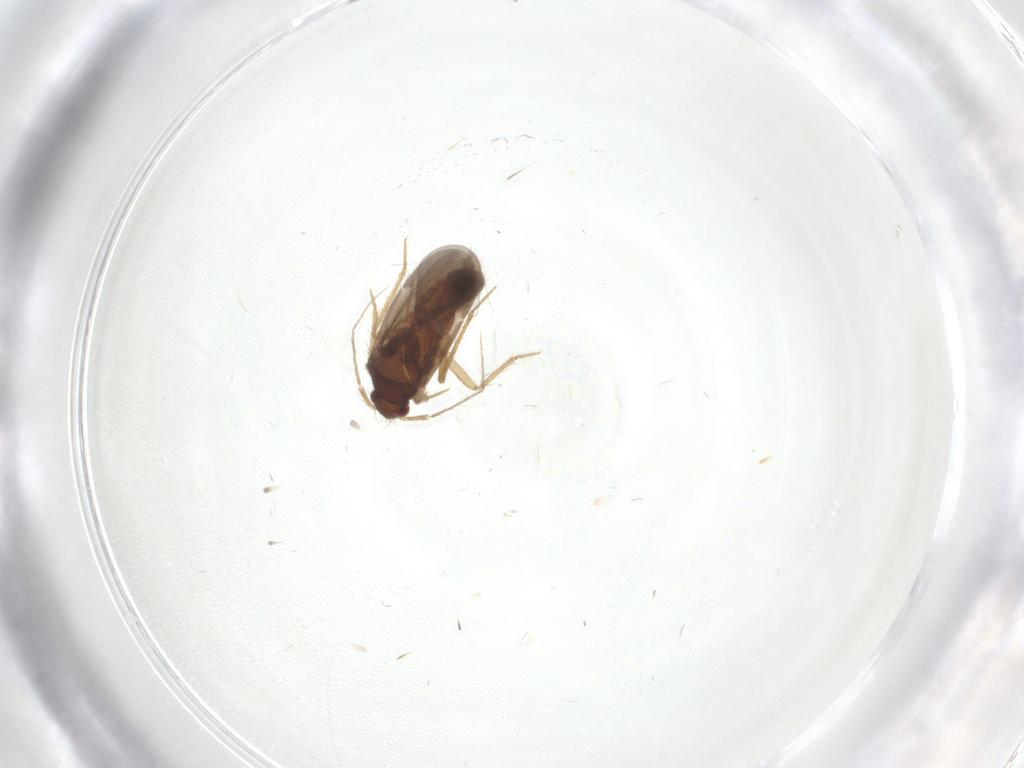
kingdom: Animalia
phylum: Arthropoda
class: Insecta
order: Hemiptera
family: Ceratocombidae
